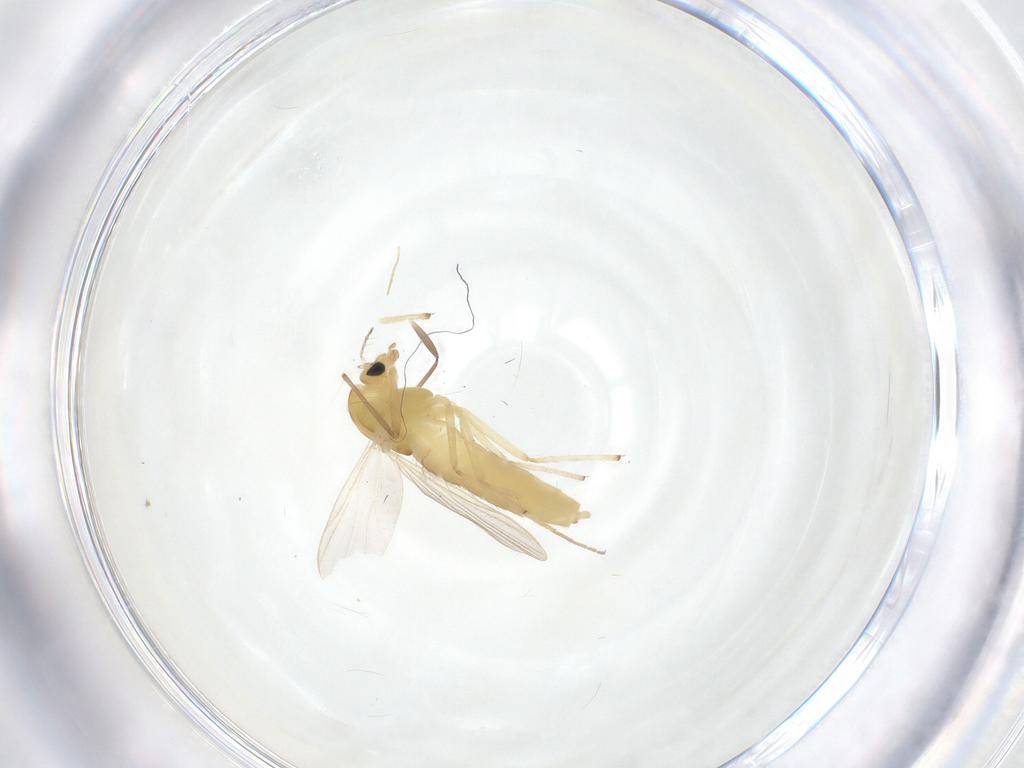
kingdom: Animalia
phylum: Arthropoda
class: Insecta
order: Diptera
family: Chironomidae
